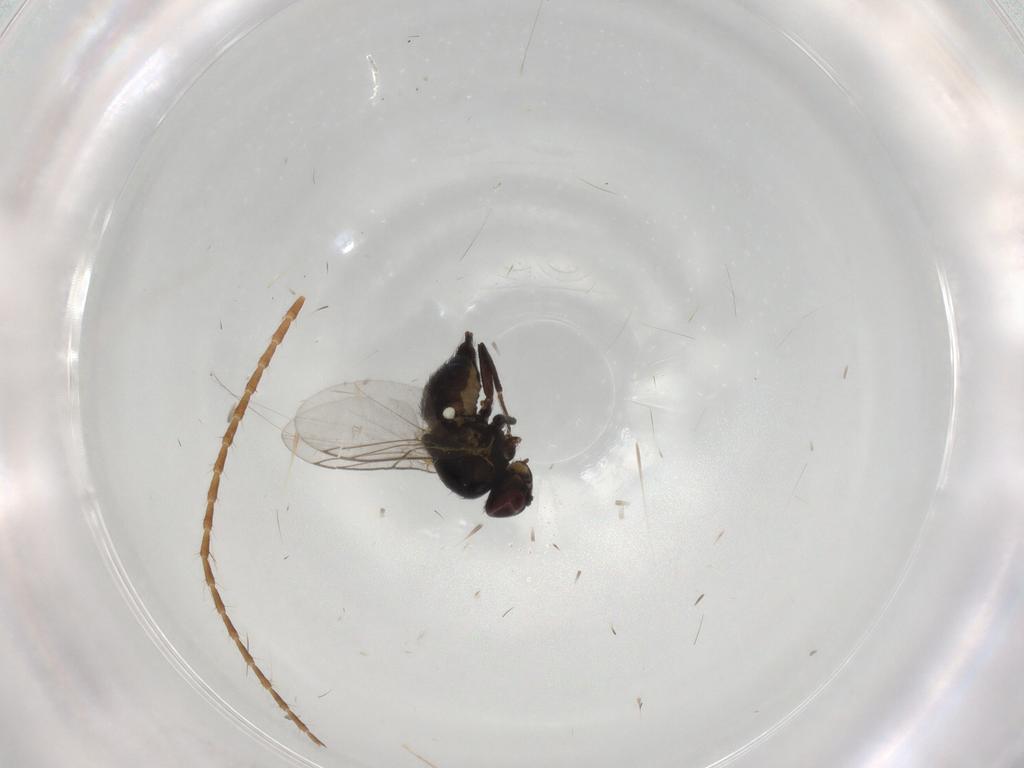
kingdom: Animalia
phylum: Arthropoda
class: Insecta
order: Diptera
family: Agromyzidae
